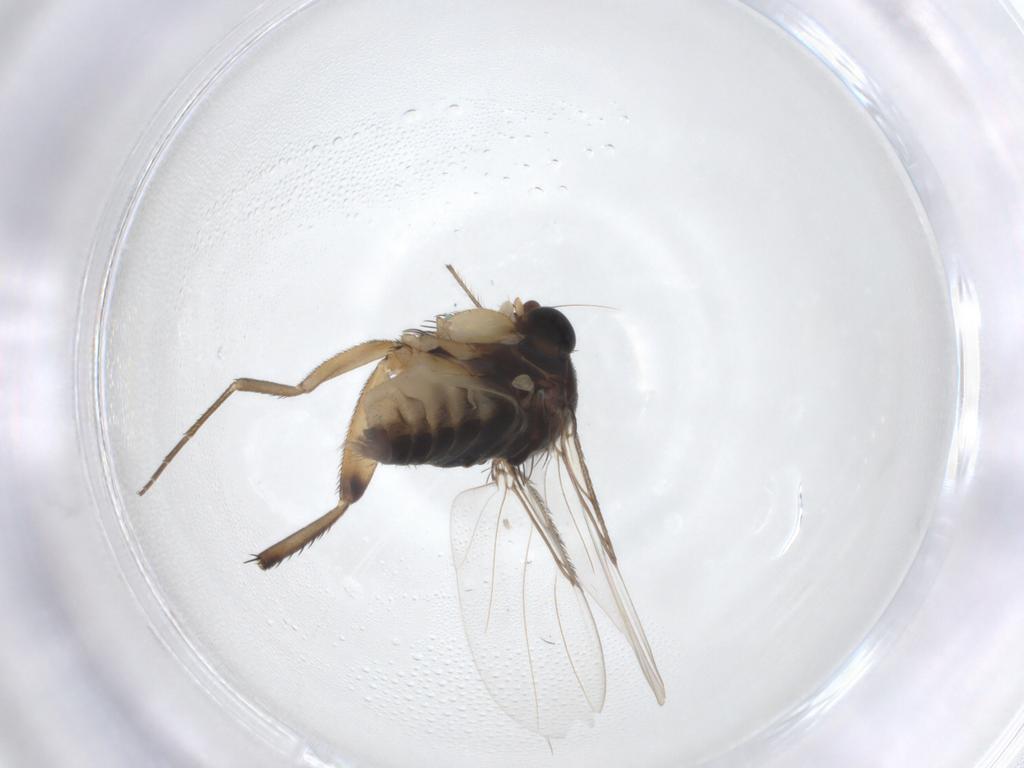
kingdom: Animalia
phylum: Arthropoda
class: Insecta
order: Diptera
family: Phoridae
